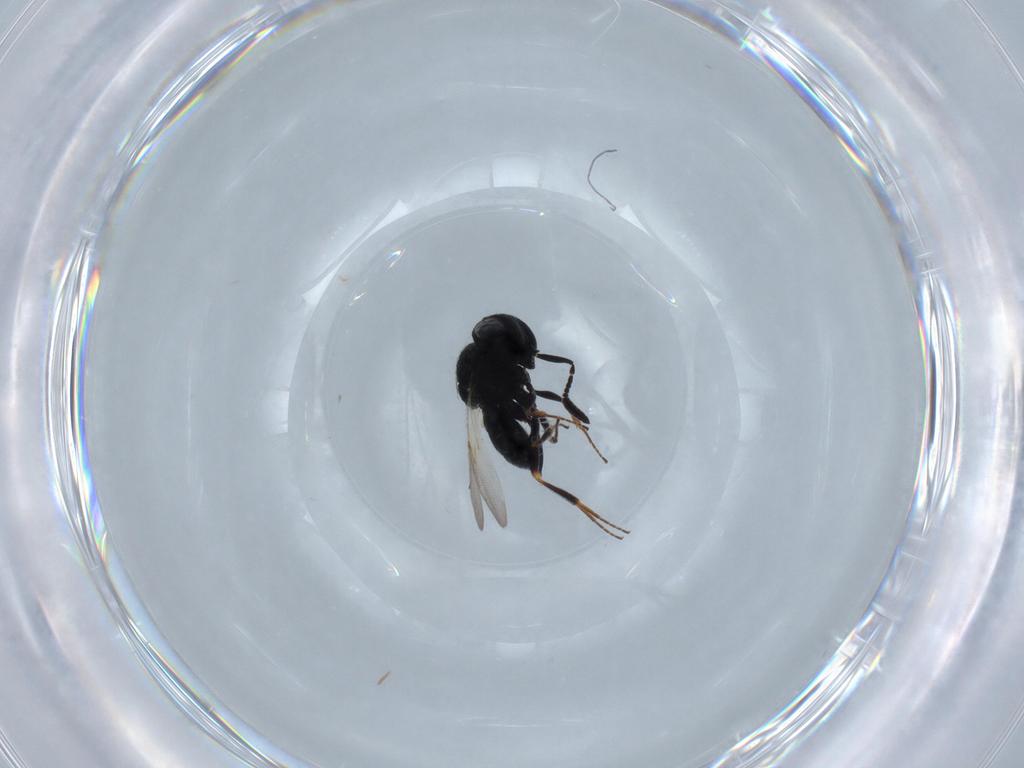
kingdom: Animalia
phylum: Arthropoda
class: Insecta
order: Hymenoptera
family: Scelionidae
